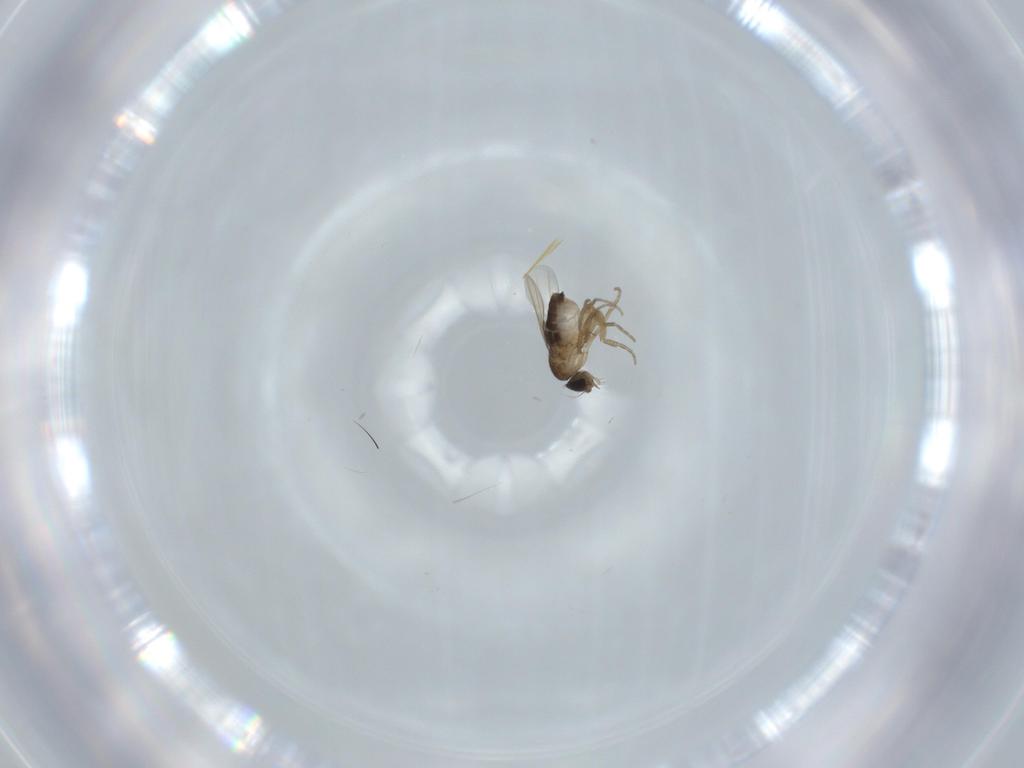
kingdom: Animalia
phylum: Arthropoda
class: Insecta
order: Diptera
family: Phoridae
